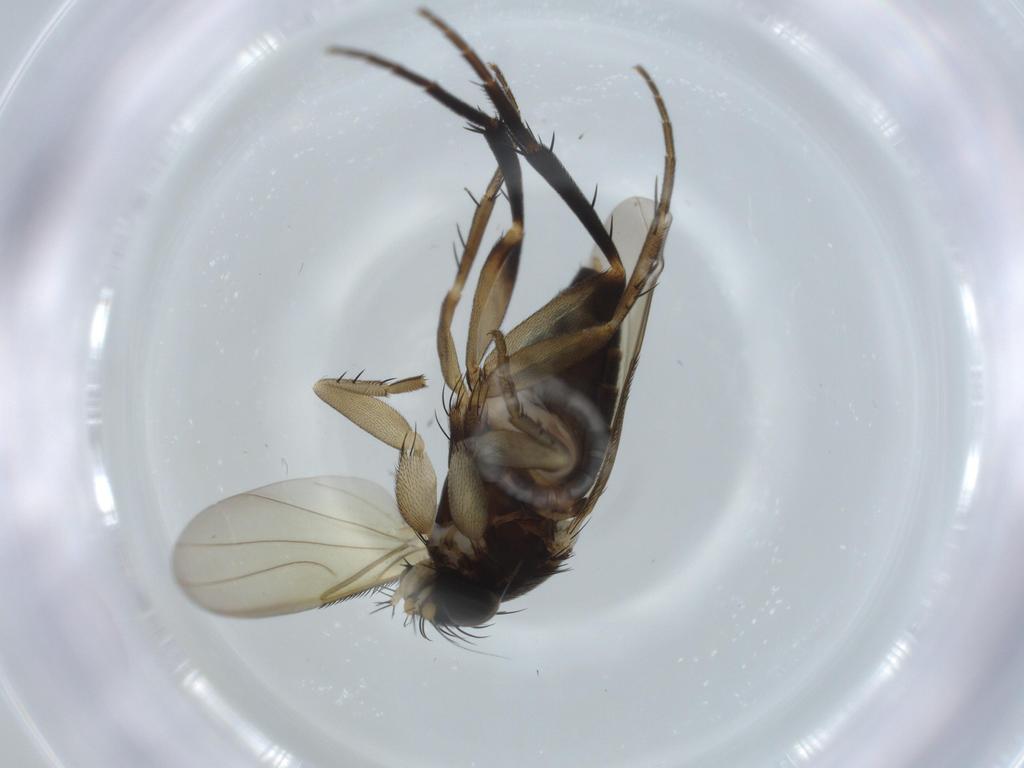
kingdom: Animalia
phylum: Arthropoda
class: Insecta
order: Diptera
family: Phoridae
